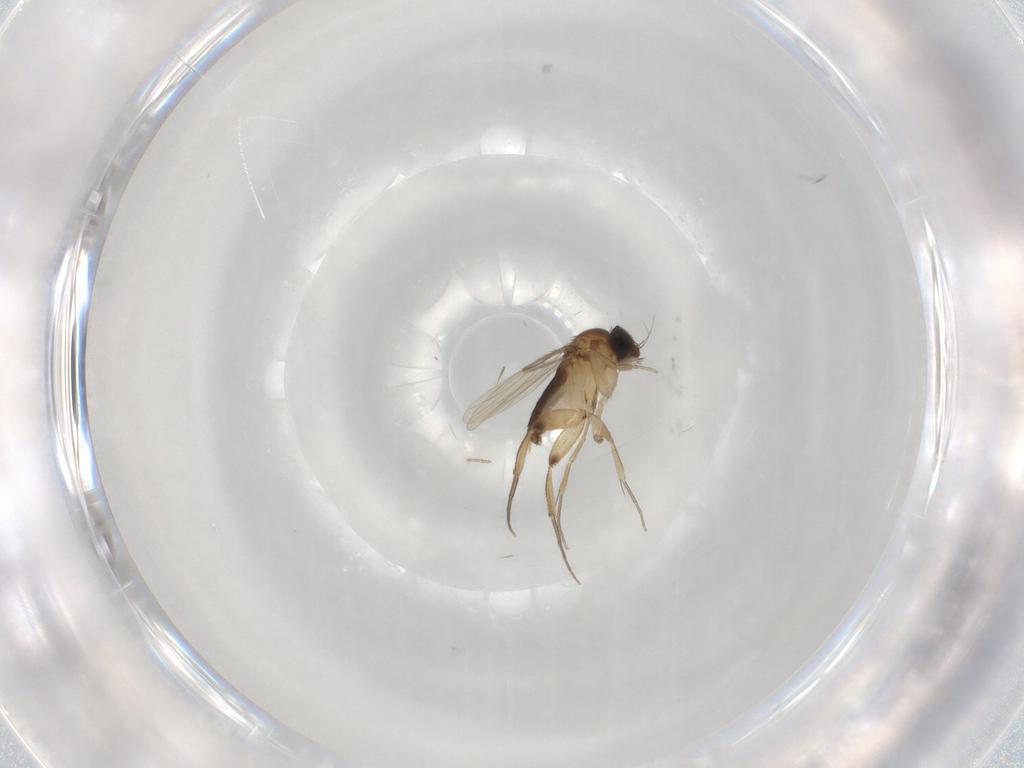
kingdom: Animalia
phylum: Arthropoda
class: Insecta
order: Diptera
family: Phoridae
